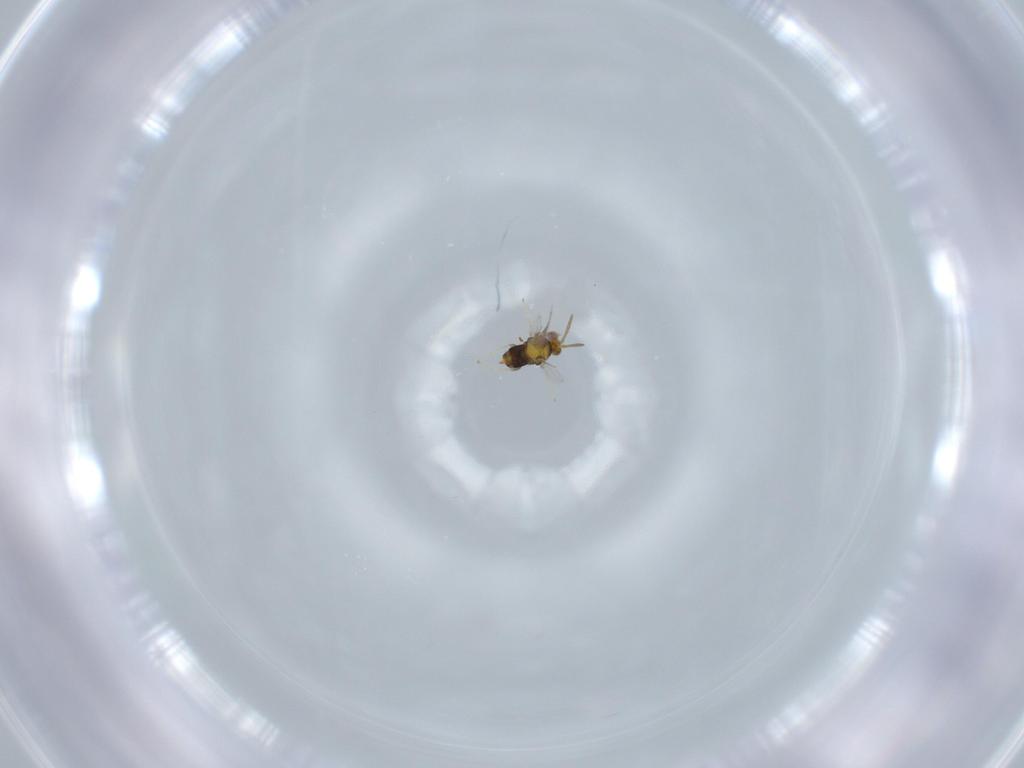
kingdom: Animalia
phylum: Arthropoda
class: Insecta
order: Hymenoptera
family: Aphelinidae
